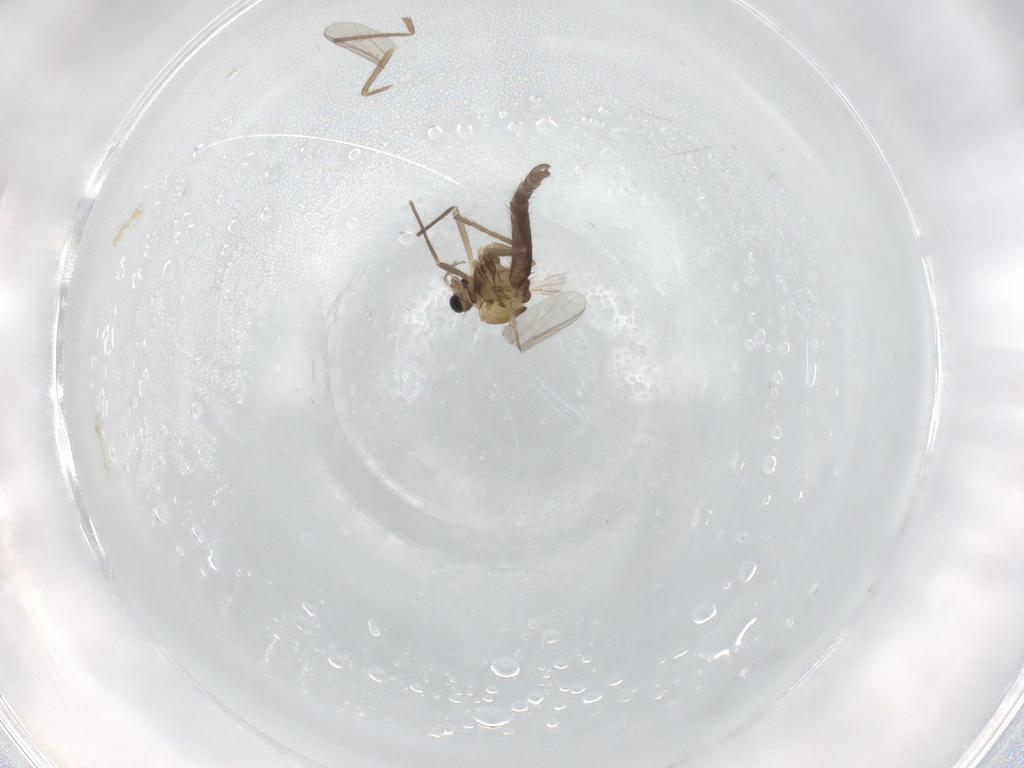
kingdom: Animalia
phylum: Arthropoda
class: Insecta
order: Diptera
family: Chironomidae
